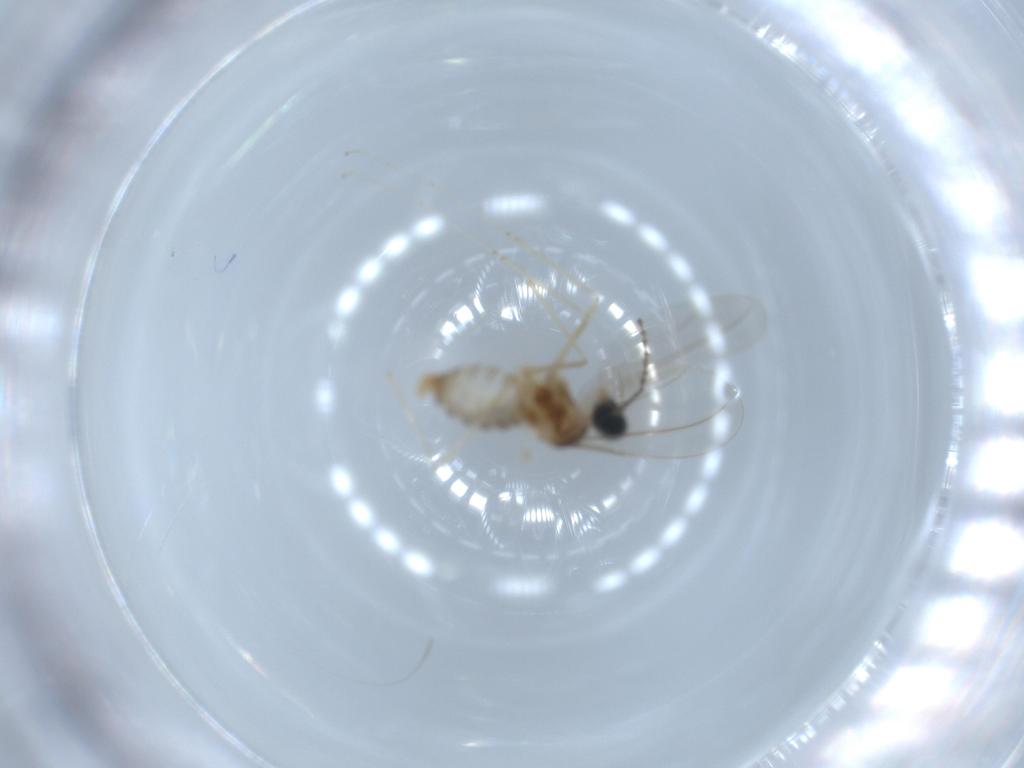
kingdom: Animalia
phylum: Arthropoda
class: Insecta
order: Diptera
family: Cecidomyiidae
